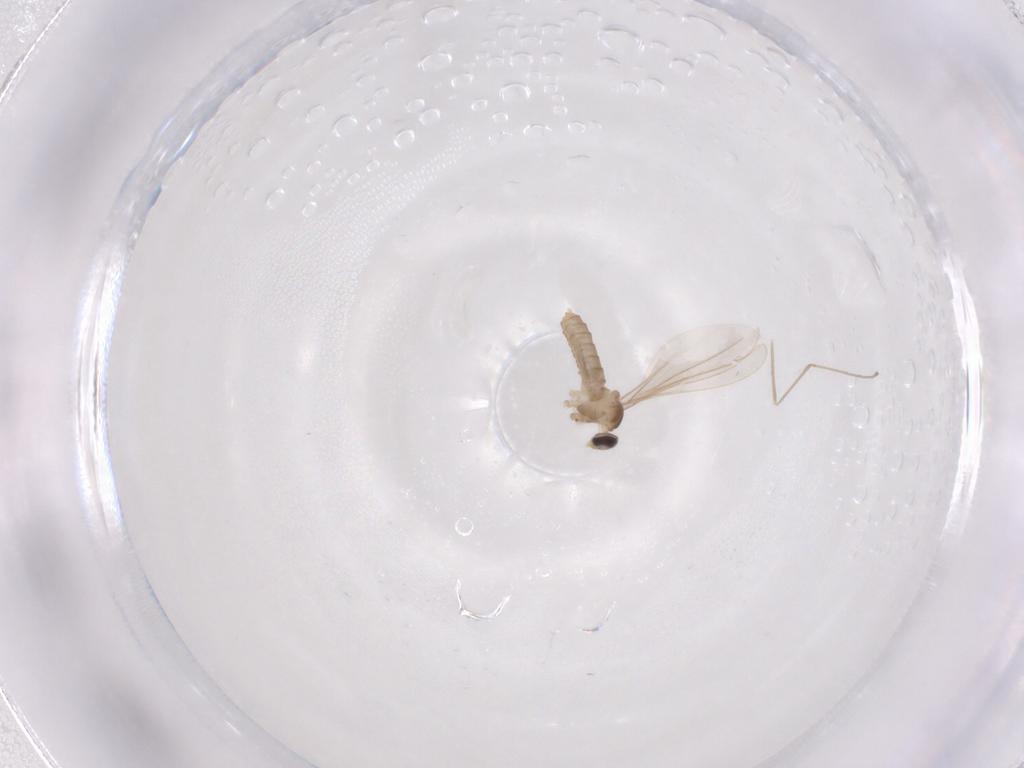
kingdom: Animalia
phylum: Arthropoda
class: Insecta
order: Diptera
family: Cecidomyiidae
